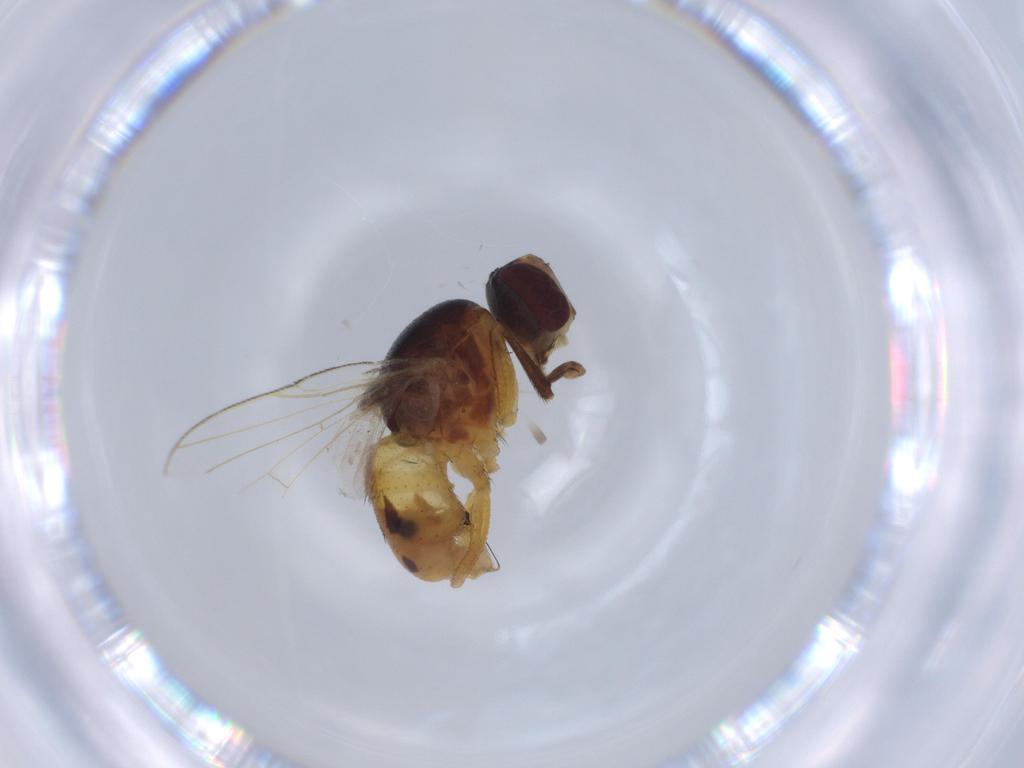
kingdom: Animalia
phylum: Arthropoda
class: Insecta
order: Diptera
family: Dolichopodidae
